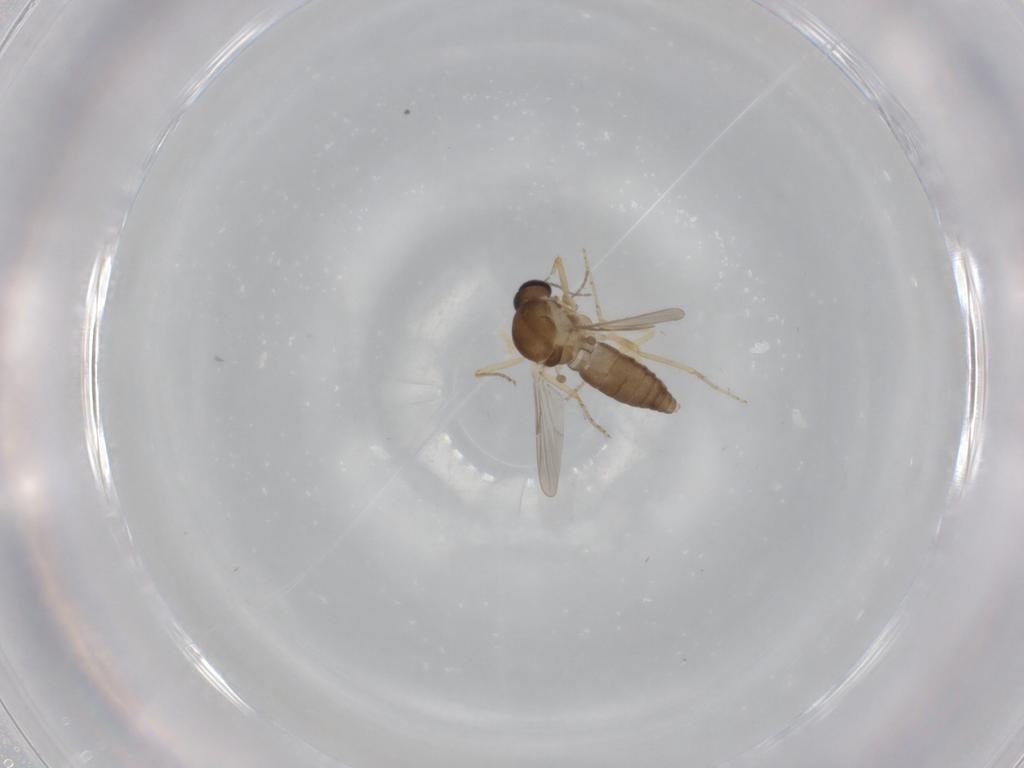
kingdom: Animalia
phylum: Arthropoda
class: Insecta
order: Diptera
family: Ceratopogonidae
